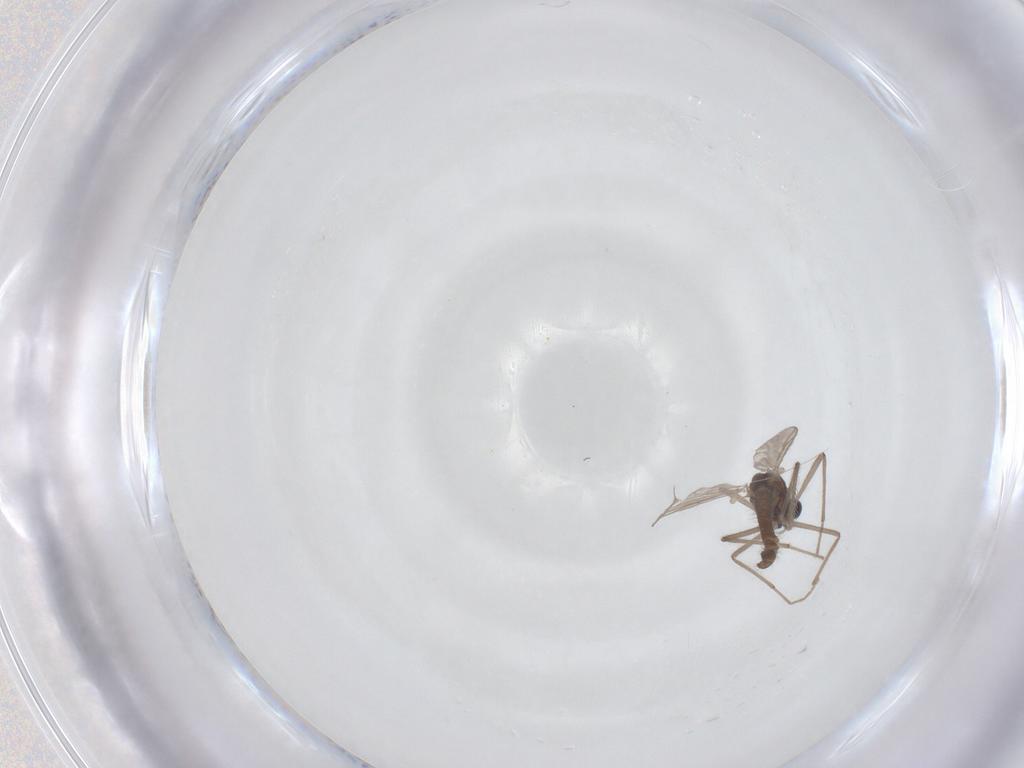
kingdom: Animalia
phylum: Arthropoda
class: Insecta
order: Diptera
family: Chironomidae
